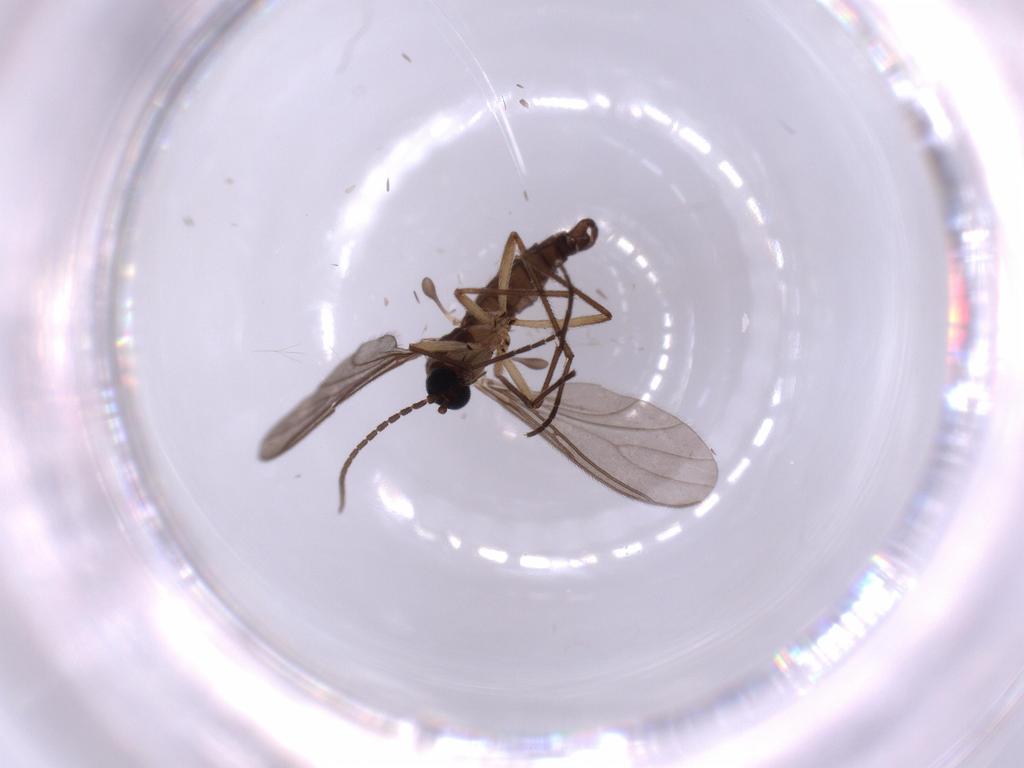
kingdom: Animalia
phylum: Arthropoda
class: Insecta
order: Diptera
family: Sciaridae
